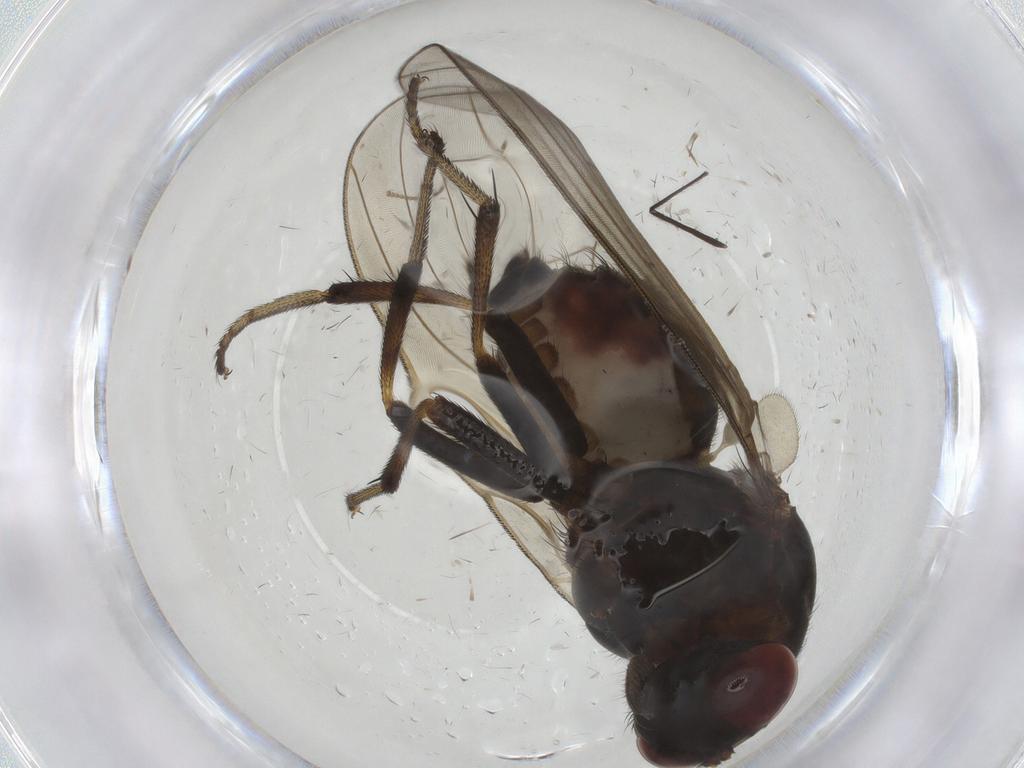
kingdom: Animalia
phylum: Arthropoda
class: Insecta
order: Diptera
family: Ceratopogonidae
